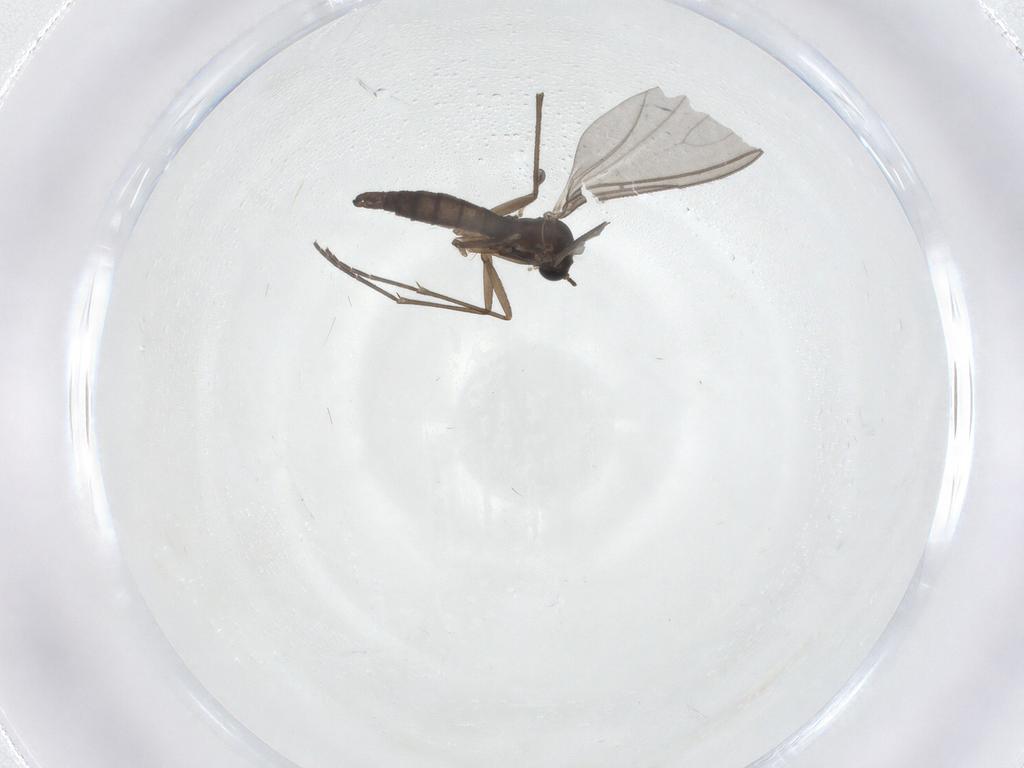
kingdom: Animalia
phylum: Arthropoda
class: Insecta
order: Diptera
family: Sciaridae
